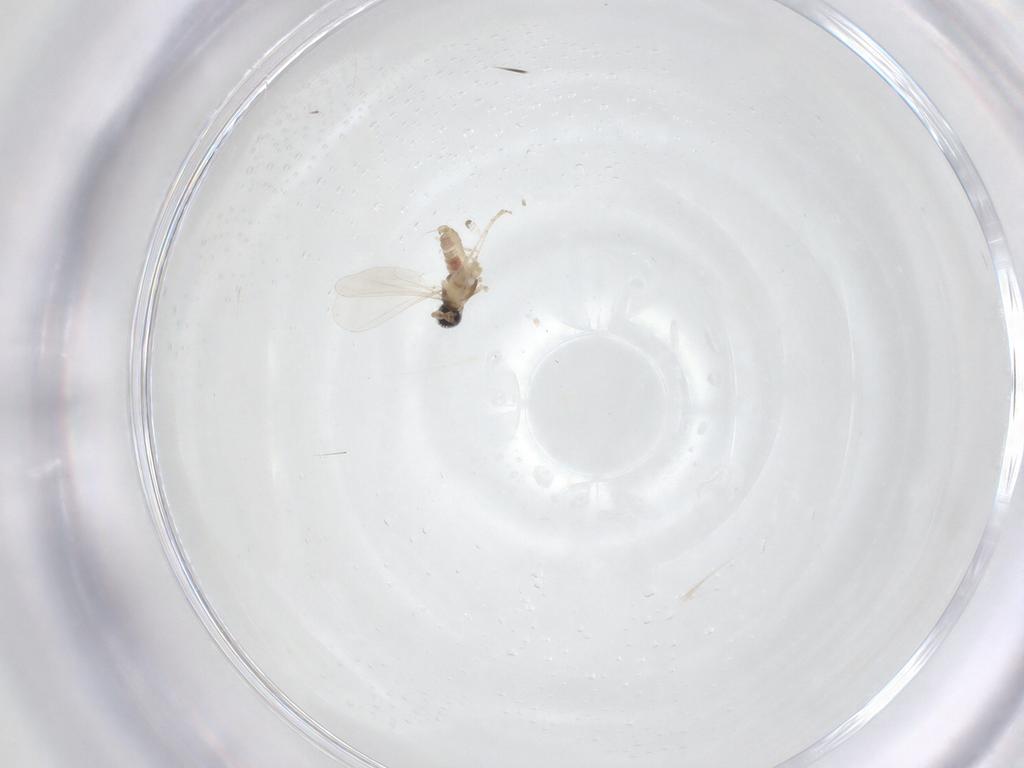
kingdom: Animalia
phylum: Arthropoda
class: Insecta
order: Diptera
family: Cecidomyiidae
